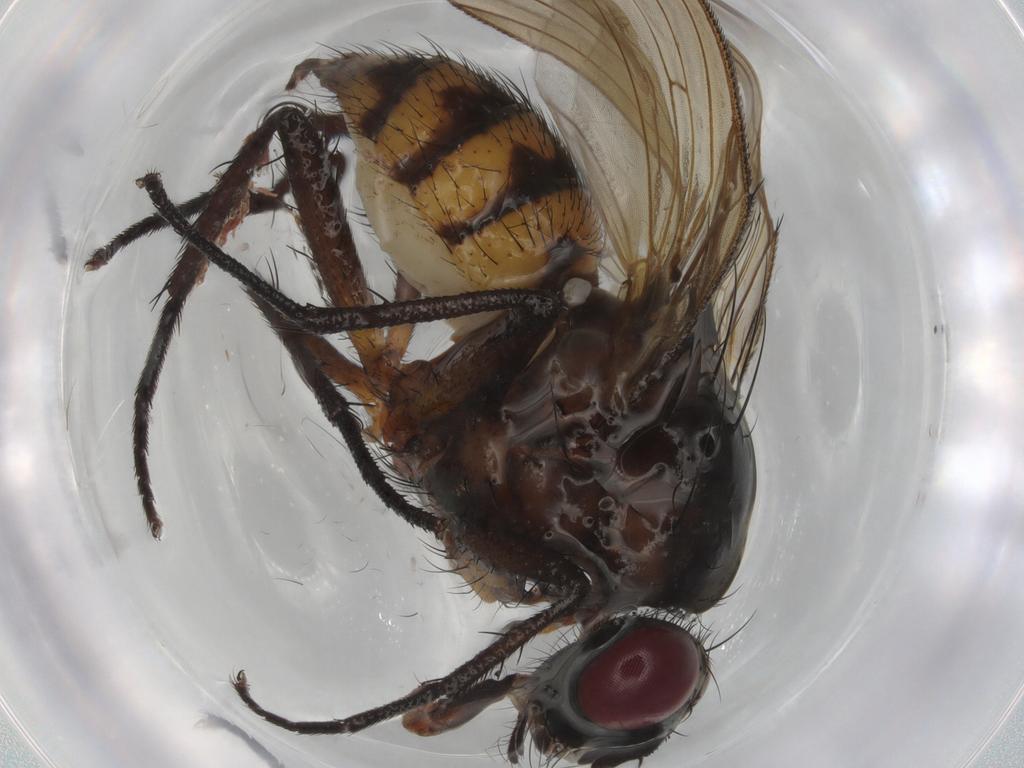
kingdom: Animalia
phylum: Arthropoda
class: Insecta
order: Diptera
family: Anthomyiidae
